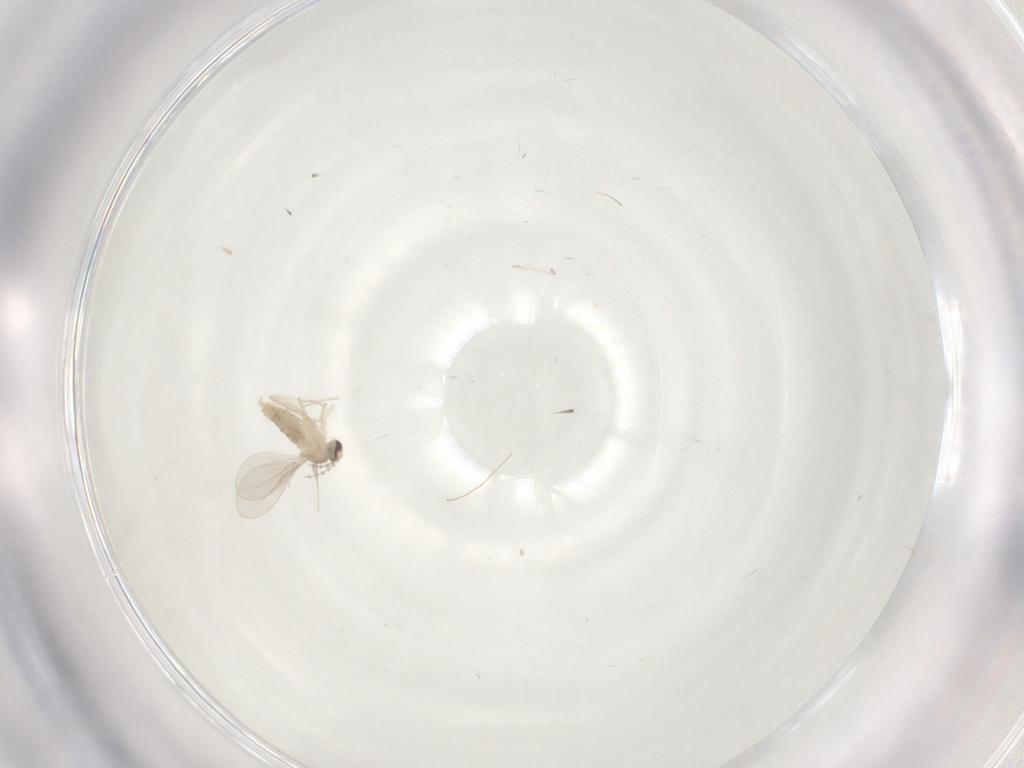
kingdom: Animalia
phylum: Arthropoda
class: Insecta
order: Diptera
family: Cecidomyiidae
